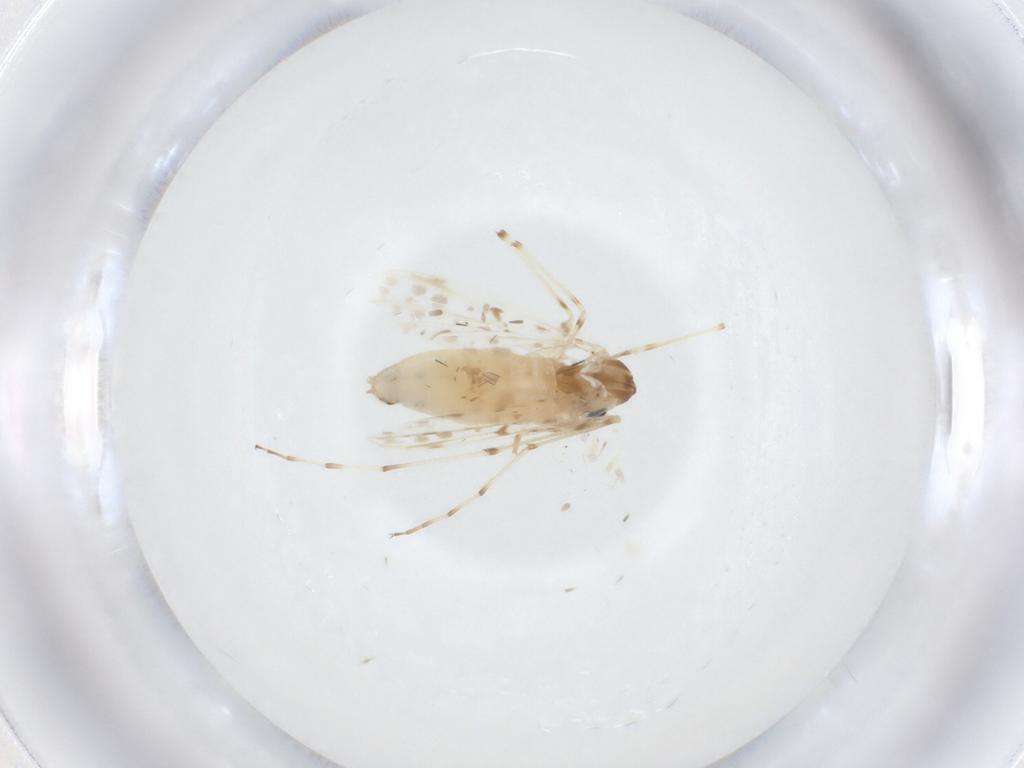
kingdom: Animalia
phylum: Arthropoda
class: Insecta
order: Diptera
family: Chironomidae
